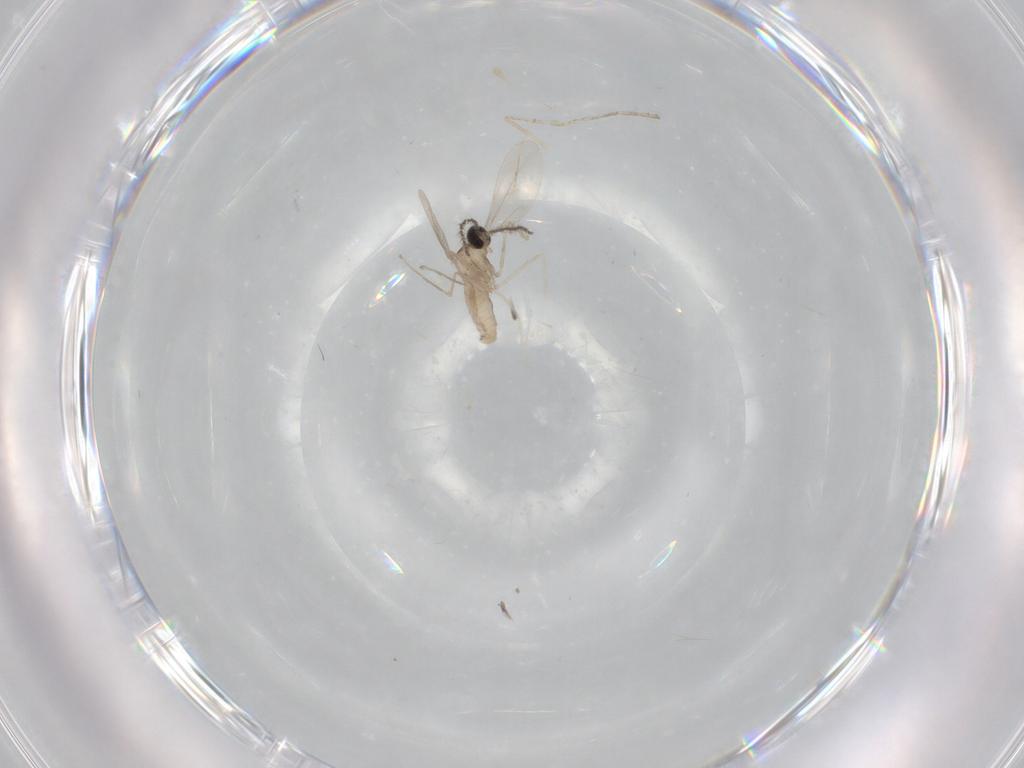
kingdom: Animalia
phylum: Arthropoda
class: Insecta
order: Diptera
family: Cecidomyiidae
